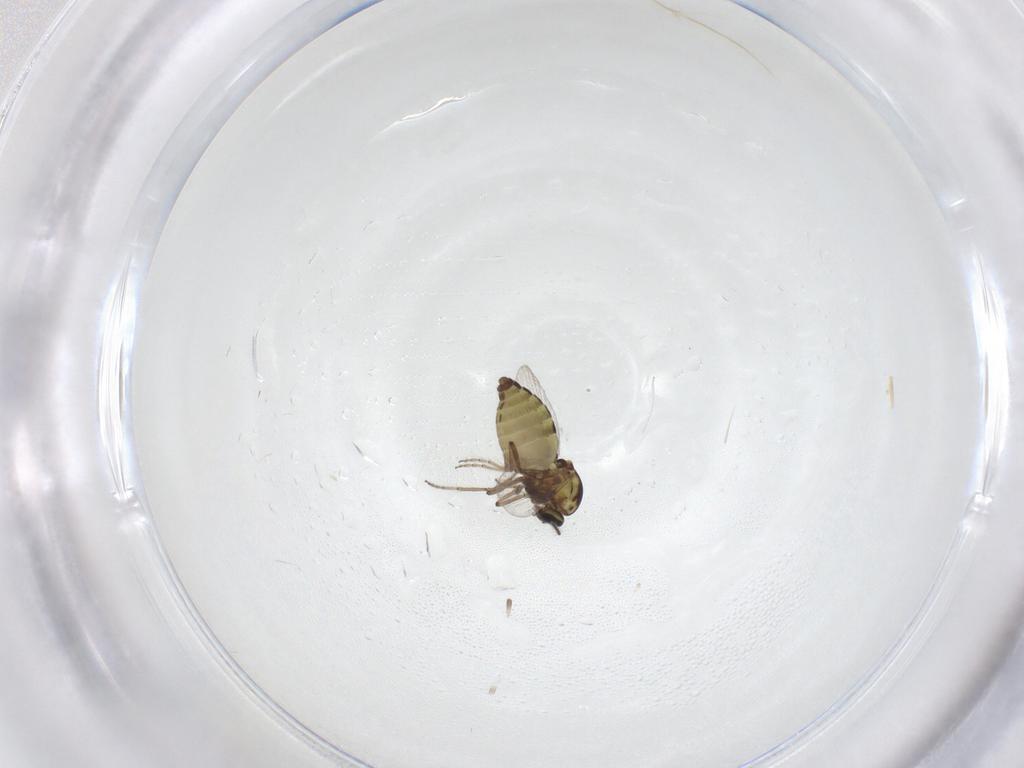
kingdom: Animalia
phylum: Arthropoda
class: Insecta
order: Diptera
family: Ceratopogonidae
